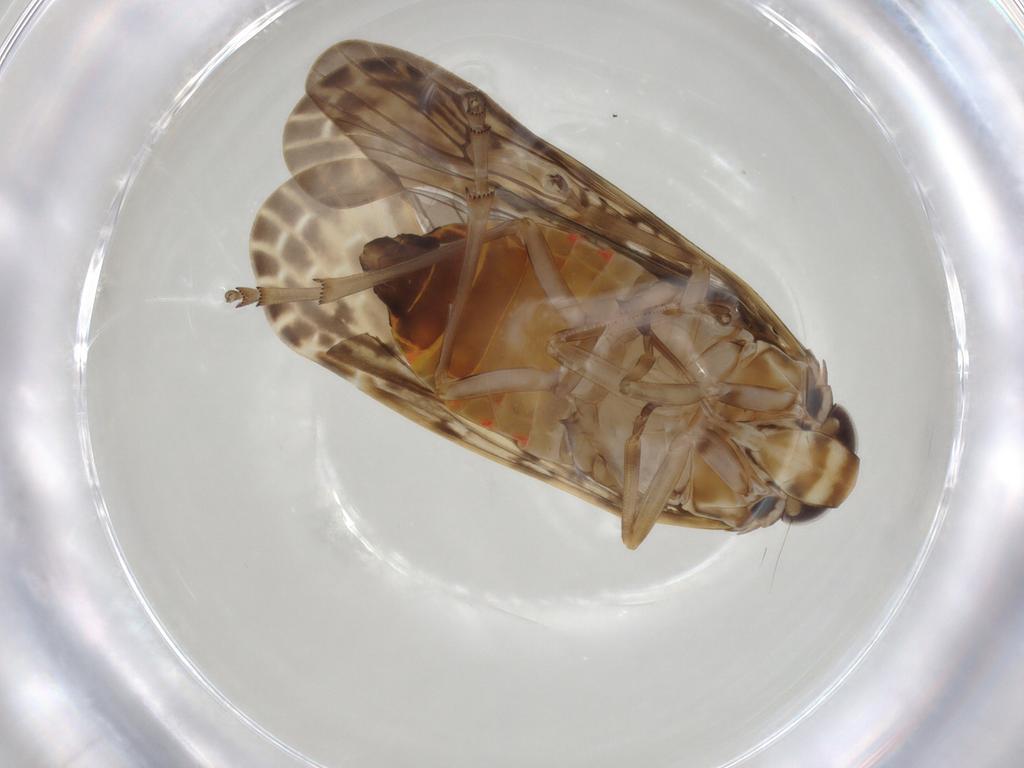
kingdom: Animalia
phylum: Arthropoda
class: Insecta
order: Hemiptera
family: Achilidae
